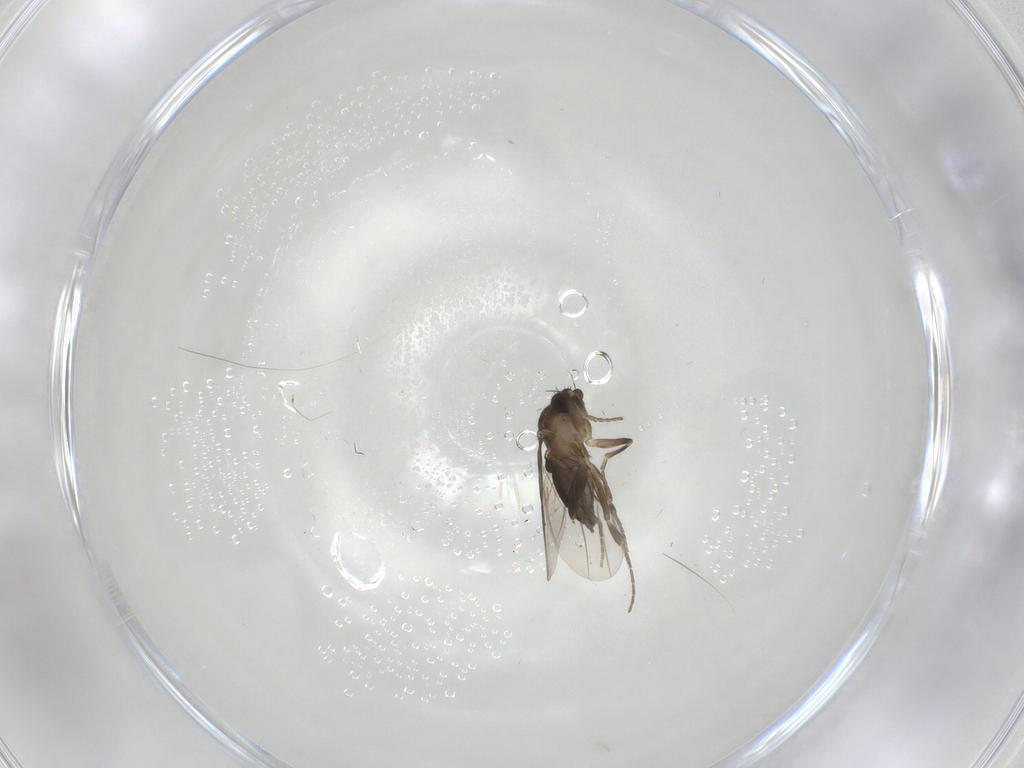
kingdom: Animalia
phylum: Arthropoda
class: Insecta
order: Diptera
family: Phoridae
